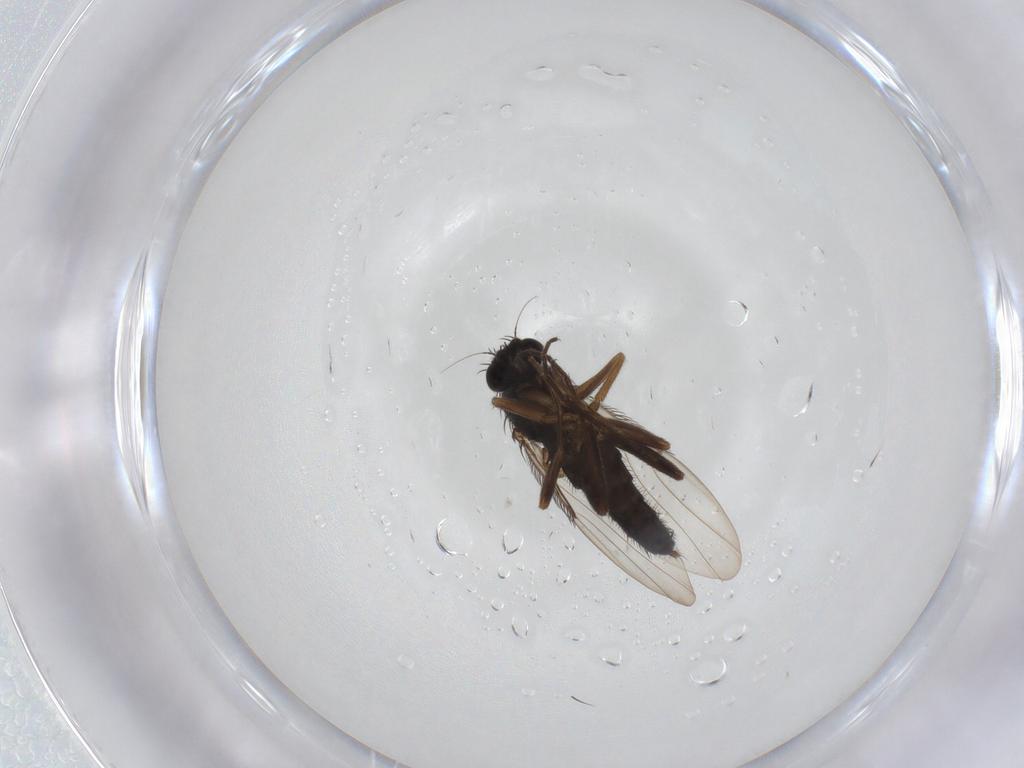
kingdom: Animalia
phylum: Arthropoda
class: Insecta
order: Diptera
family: Phoridae
